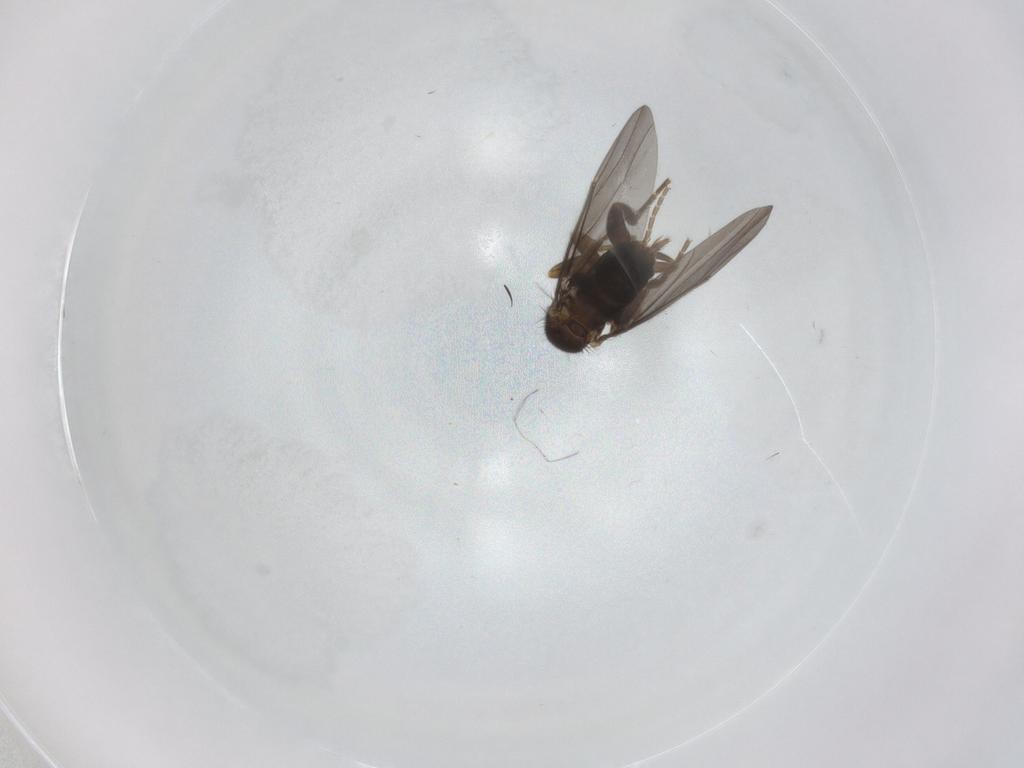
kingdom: Animalia
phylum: Arthropoda
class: Insecta
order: Diptera
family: Phoridae
